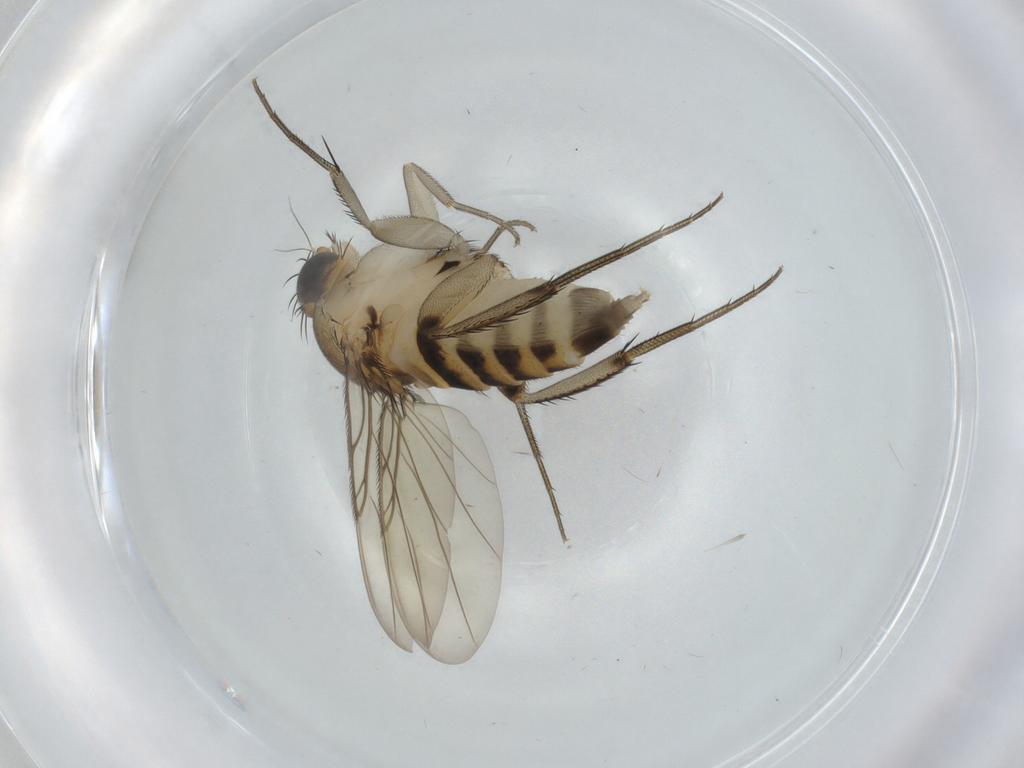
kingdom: Animalia
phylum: Arthropoda
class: Insecta
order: Diptera
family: Phoridae
